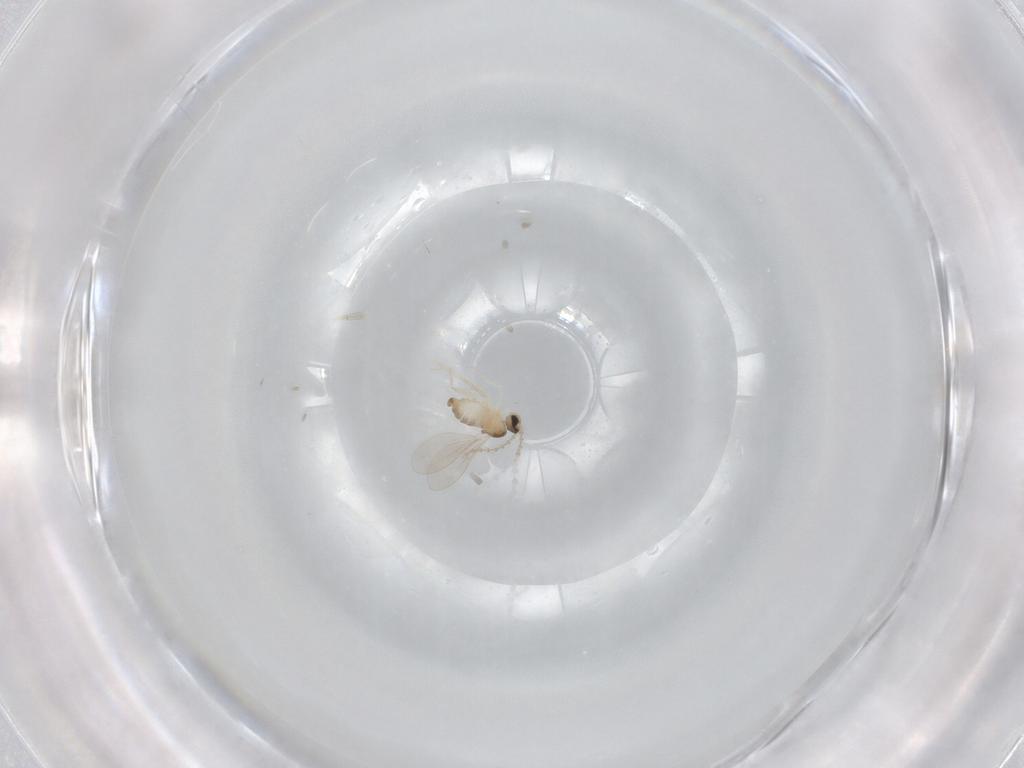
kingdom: Animalia
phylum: Arthropoda
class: Insecta
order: Diptera
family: Cecidomyiidae
